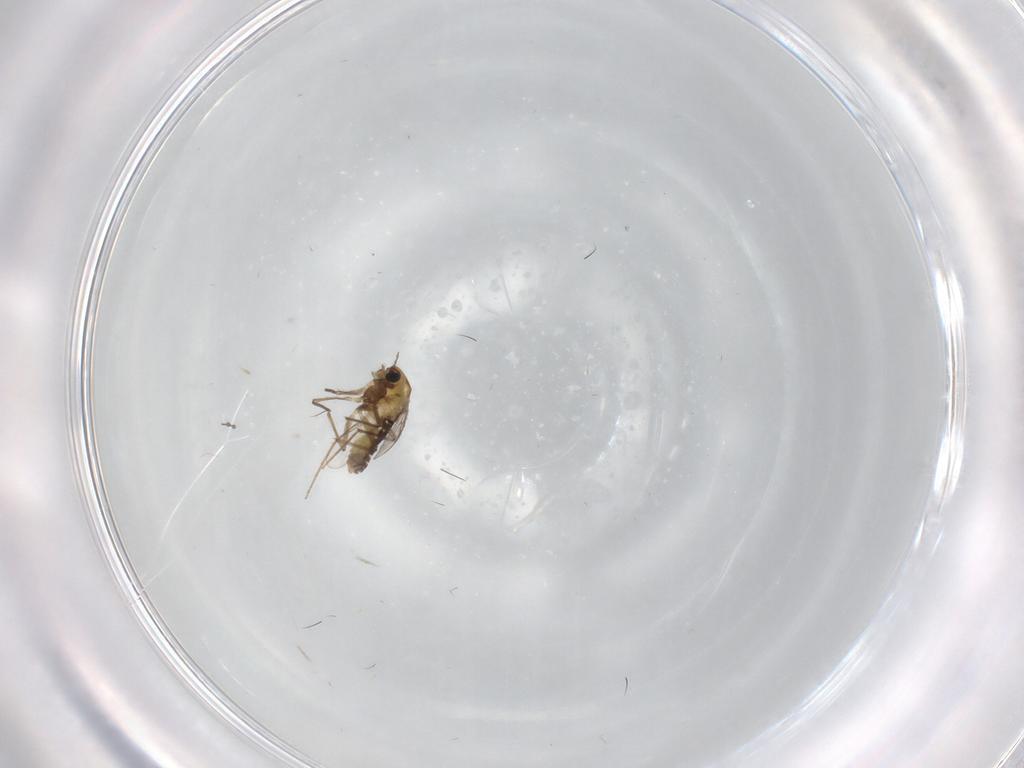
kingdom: Animalia
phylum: Arthropoda
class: Insecta
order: Diptera
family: Chironomidae
